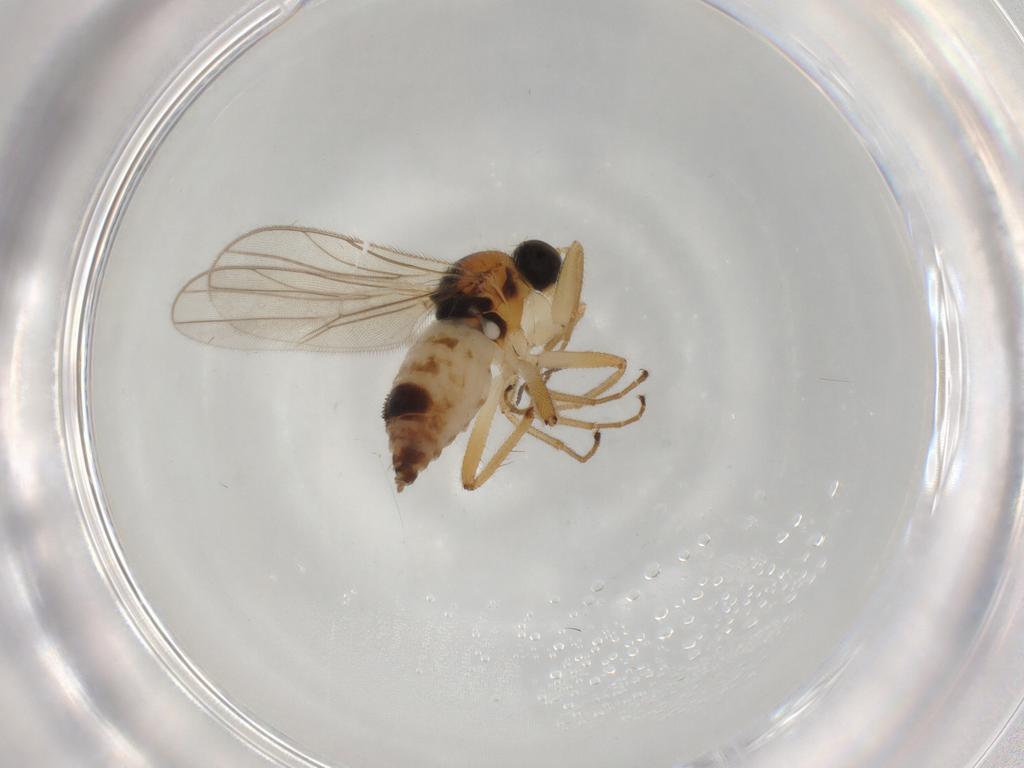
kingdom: Animalia
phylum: Arthropoda
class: Insecta
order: Diptera
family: Hybotidae
